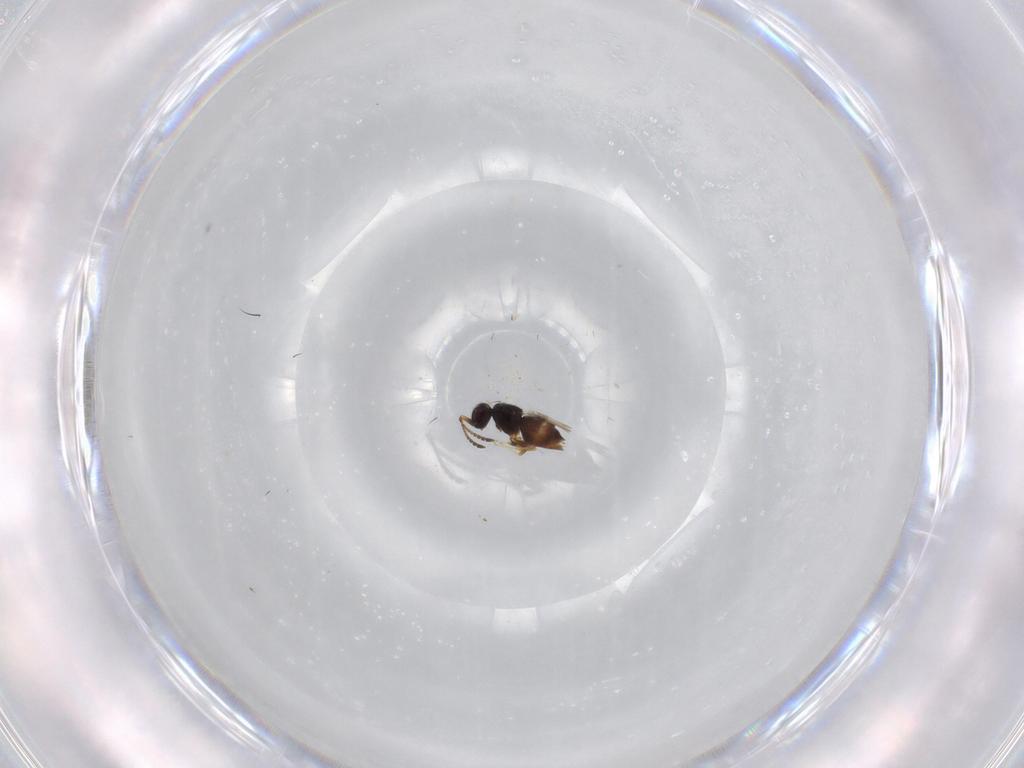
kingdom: Animalia
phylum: Arthropoda
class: Insecta
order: Hymenoptera
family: Ceraphronidae
